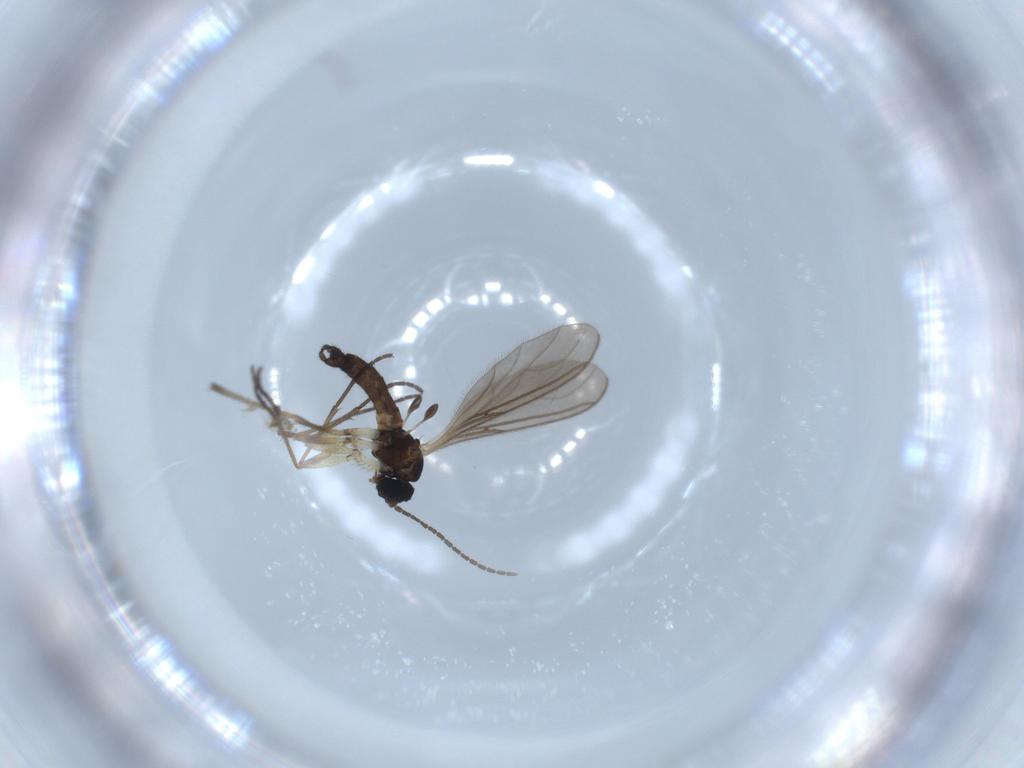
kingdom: Animalia
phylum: Arthropoda
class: Insecta
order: Diptera
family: Sciaridae
